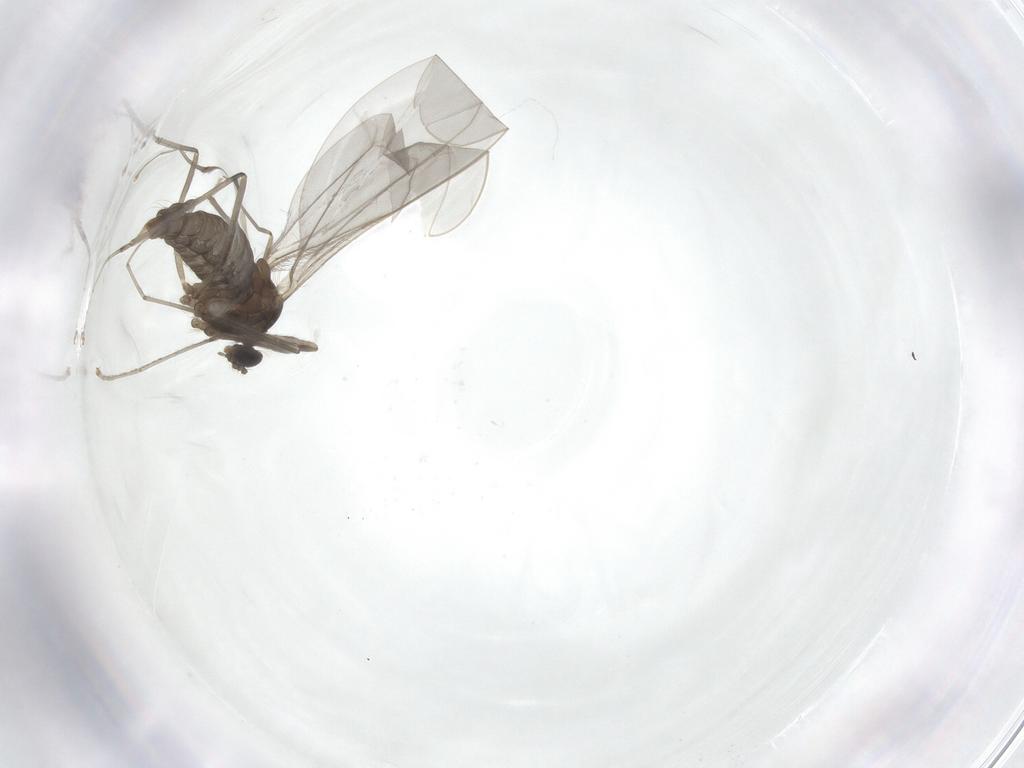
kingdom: Animalia
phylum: Arthropoda
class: Insecta
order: Diptera
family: Cecidomyiidae
